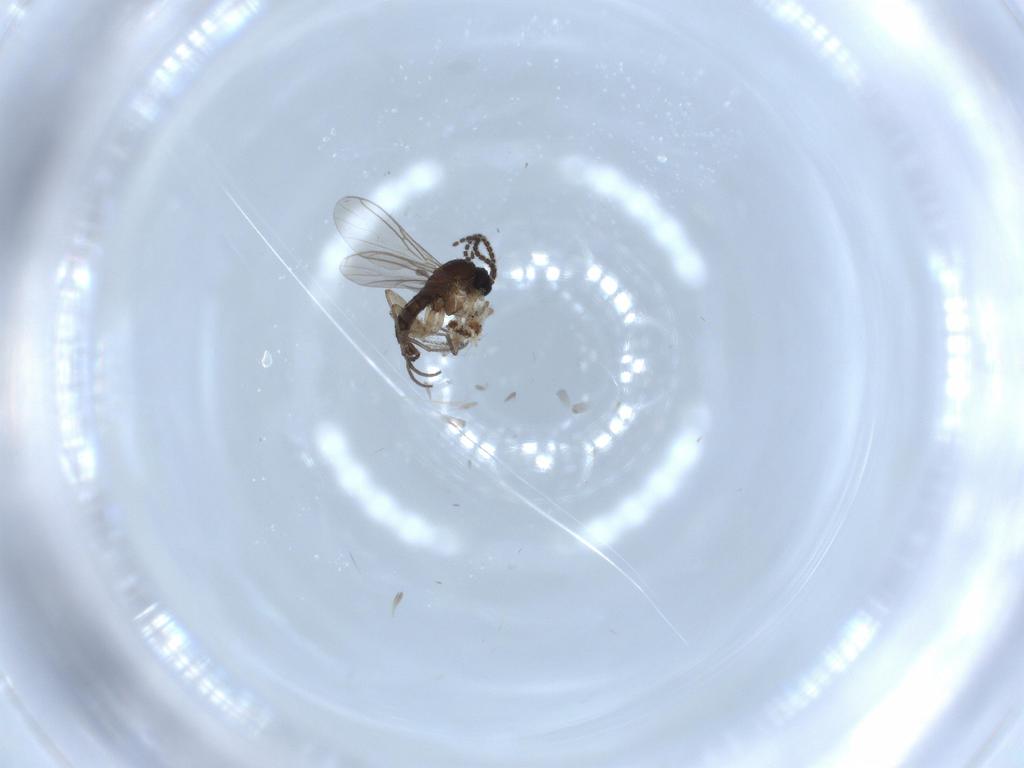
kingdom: Animalia
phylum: Arthropoda
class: Insecta
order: Diptera
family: Sciaridae
